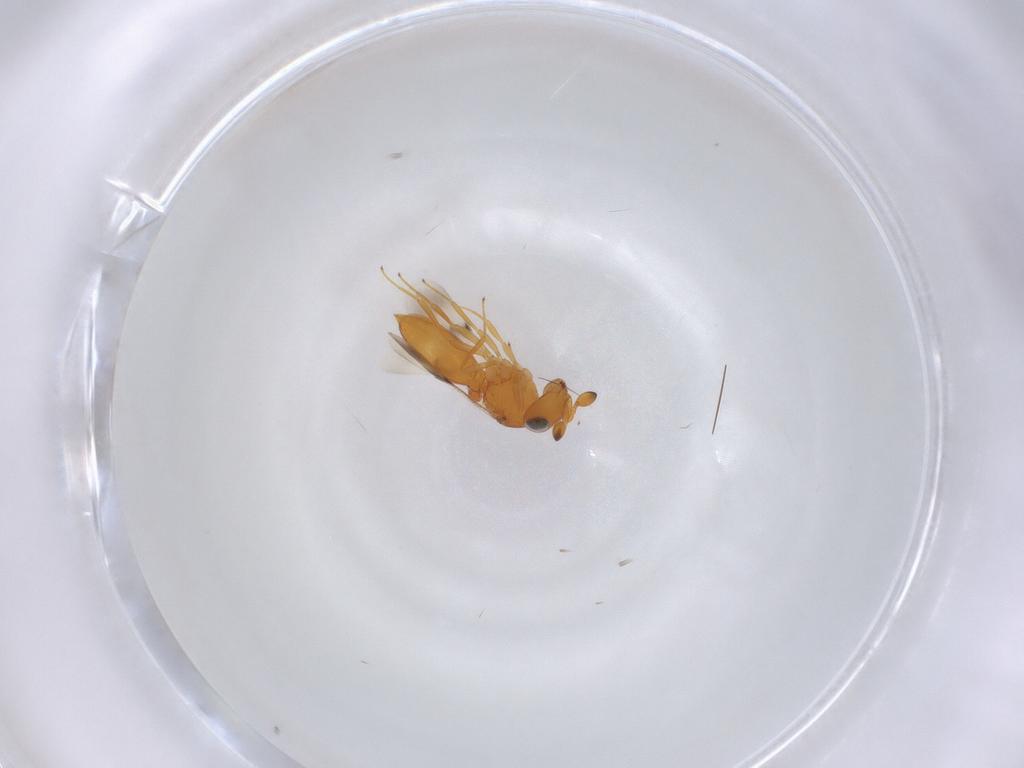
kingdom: Animalia
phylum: Arthropoda
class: Insecta
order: Hymenoptera
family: Scelionidae
